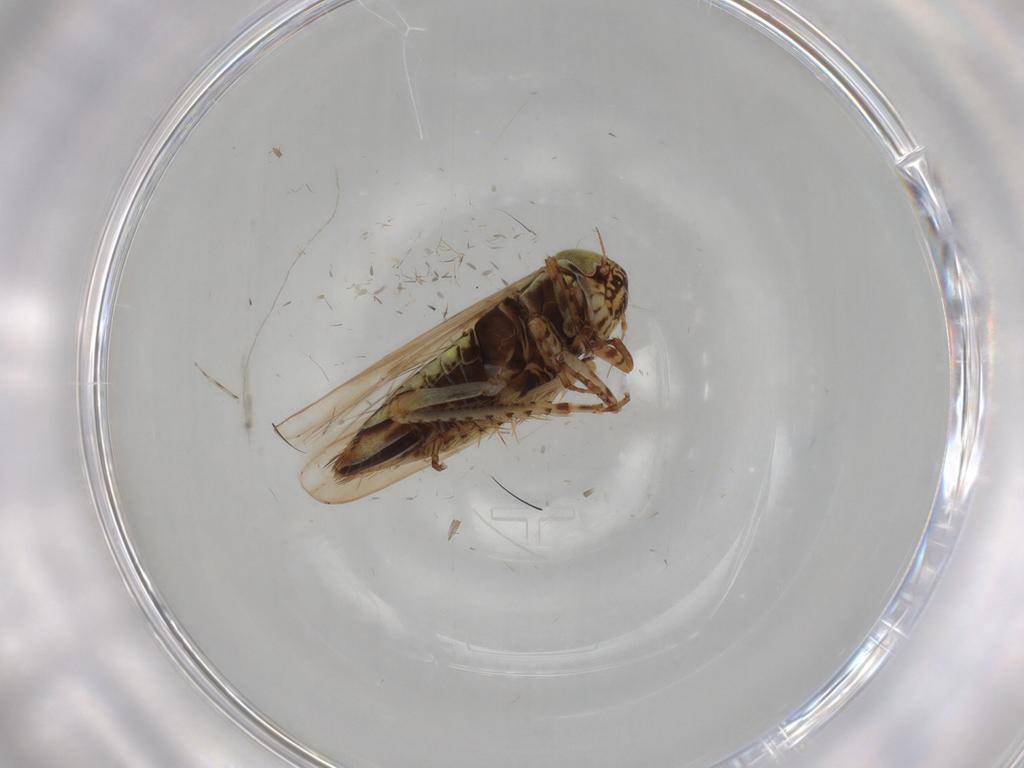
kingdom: Animalia
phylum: Arthropoda
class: Insecta
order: Hemiptera
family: Cicadellidae
